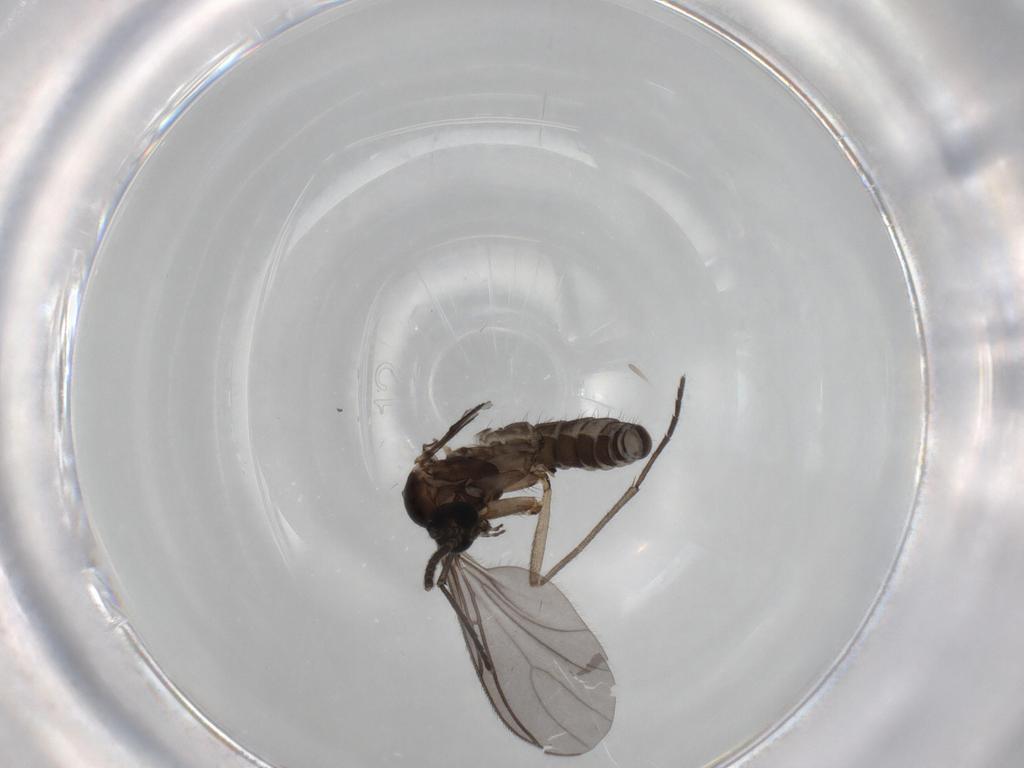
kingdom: Animalia
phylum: Arthropoda
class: Insecta
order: Diptera
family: Sciaridae
